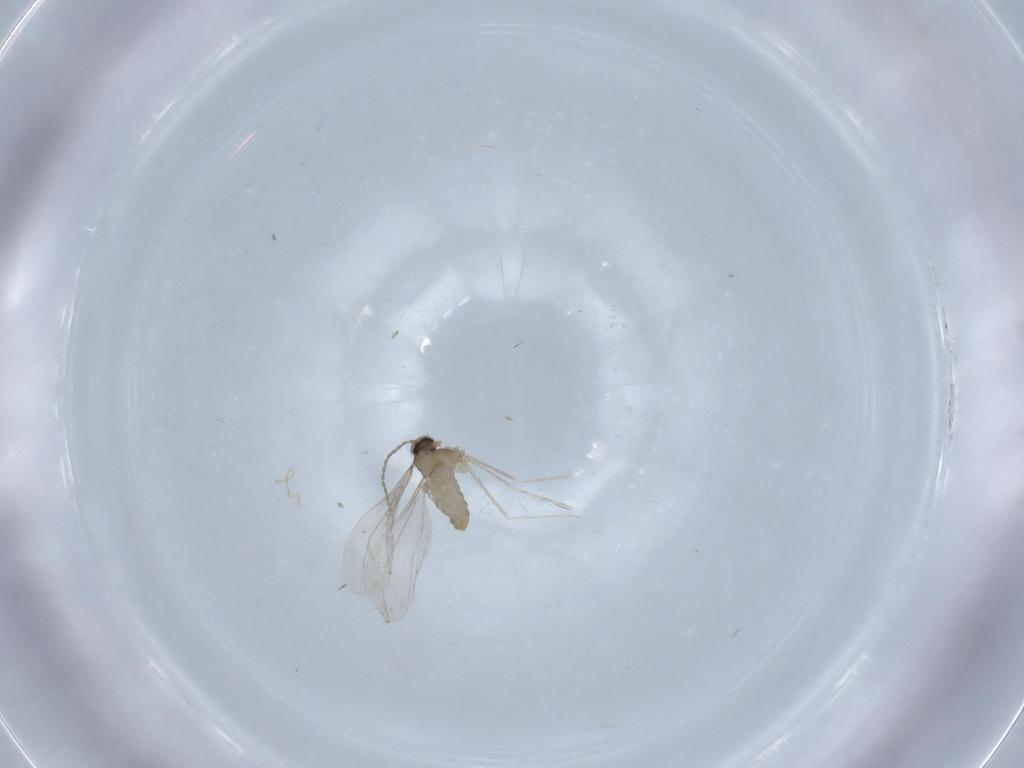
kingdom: Animalia
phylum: Arthropoda
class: Insecta
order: Diptera
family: Cecidomyiidae
